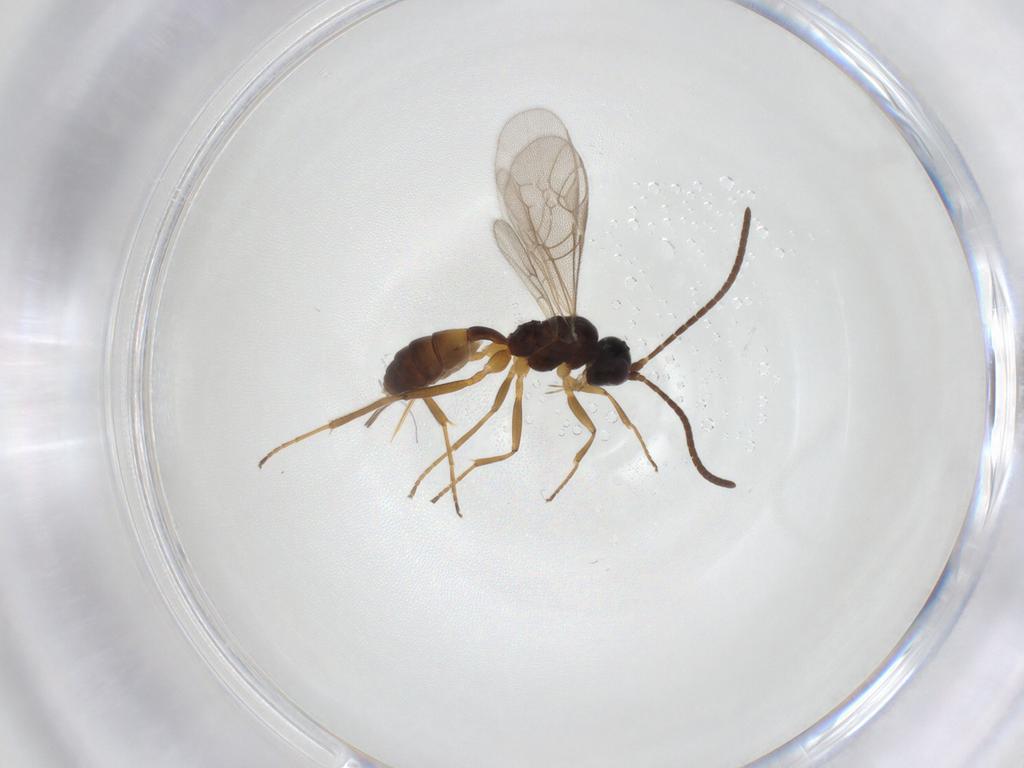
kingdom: Animalia
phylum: Arthropoda
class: Insecta
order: Hymenoptera
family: Ichneumonidae
